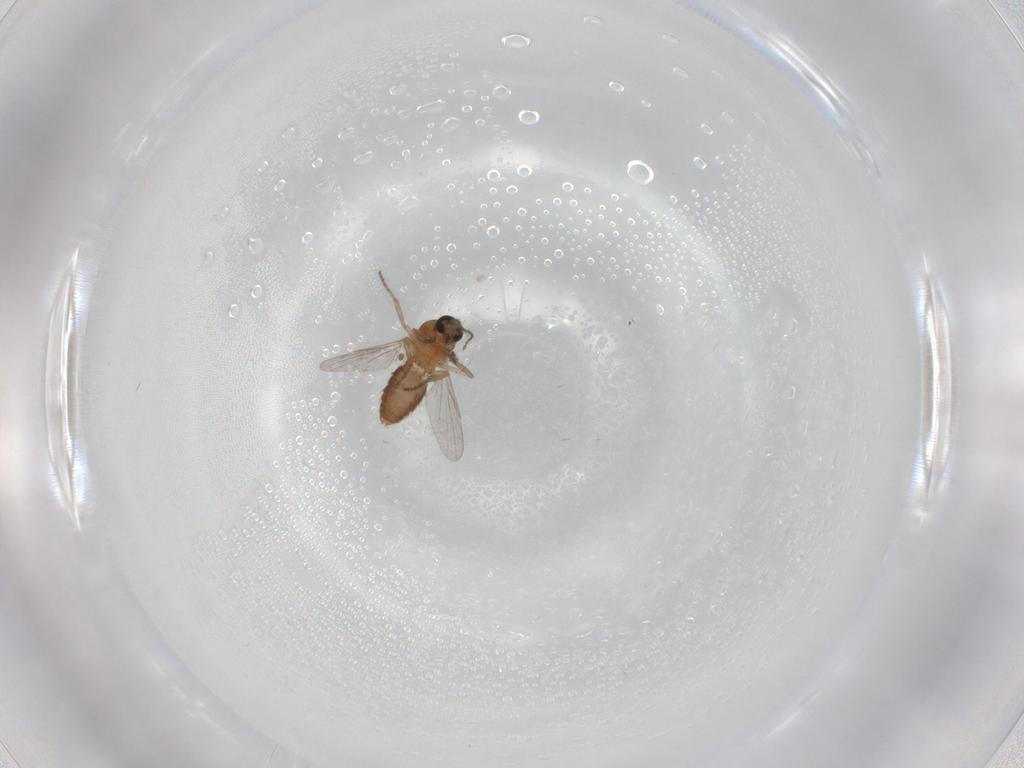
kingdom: Animalia
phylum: Arthropoda
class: Insecta
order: Diptera
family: Ceratopogonidae
